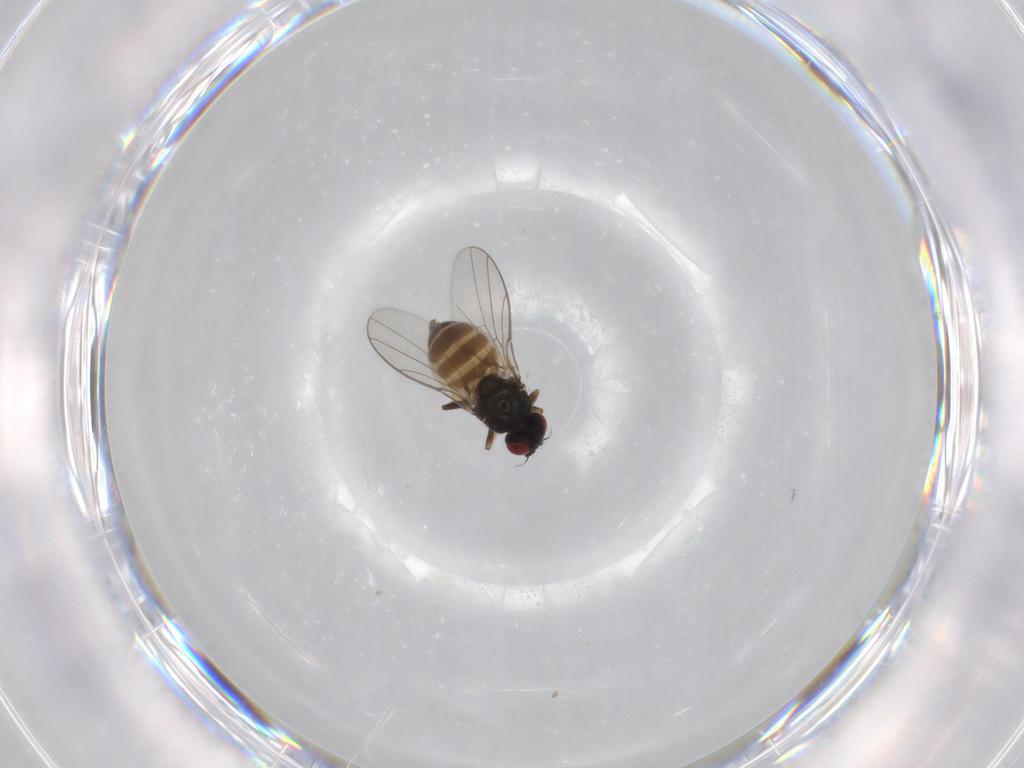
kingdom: Animalia
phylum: Arthropoda
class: Insecta
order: Diptera
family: Chloropidae
